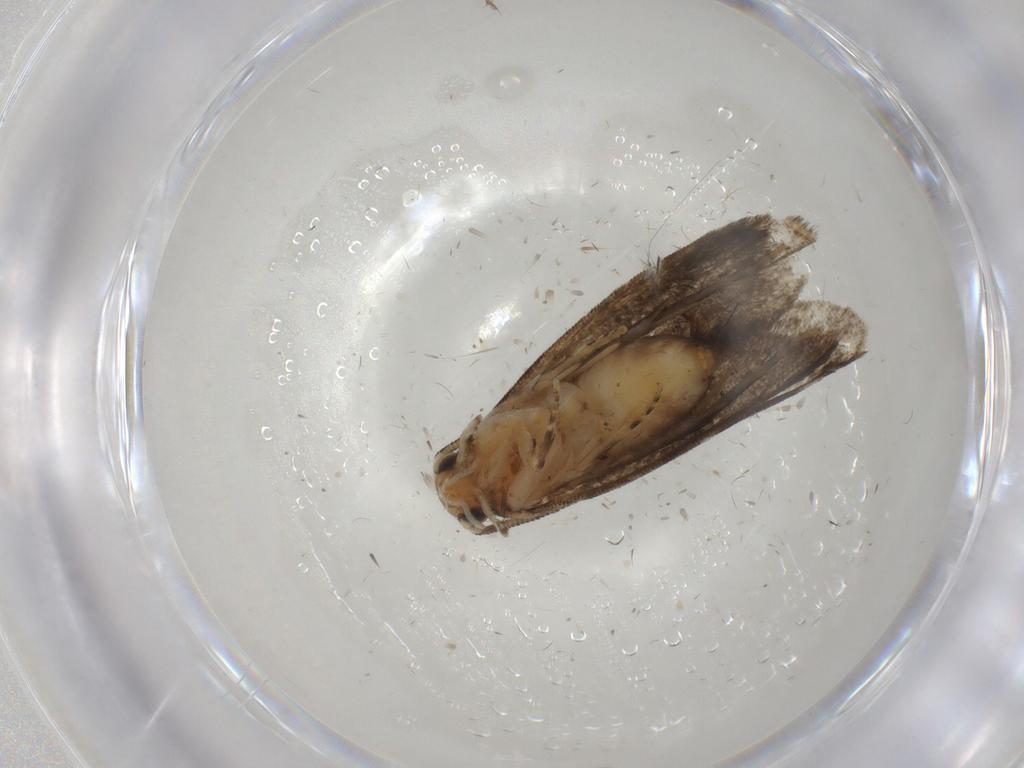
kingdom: Animalia
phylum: Arthropoda
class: Insecta
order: Lepidoptera
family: Dryadaulidae
